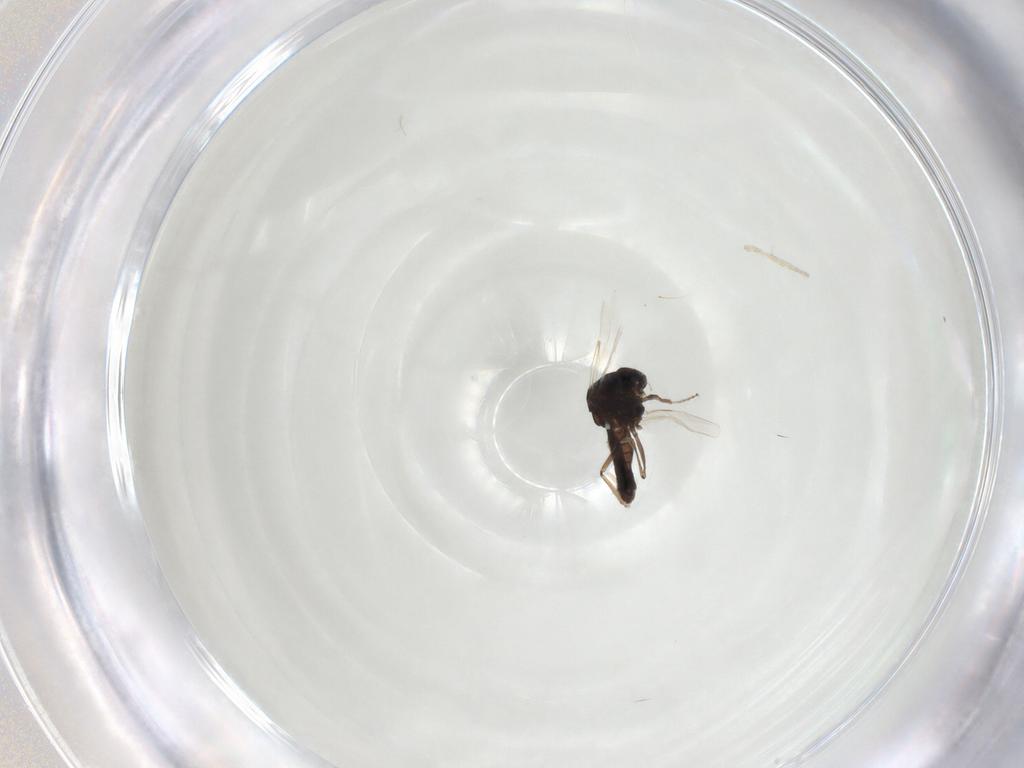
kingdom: Animalia
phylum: Arthropoda
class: Insecta
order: Diptera
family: Ceratopogonidae
